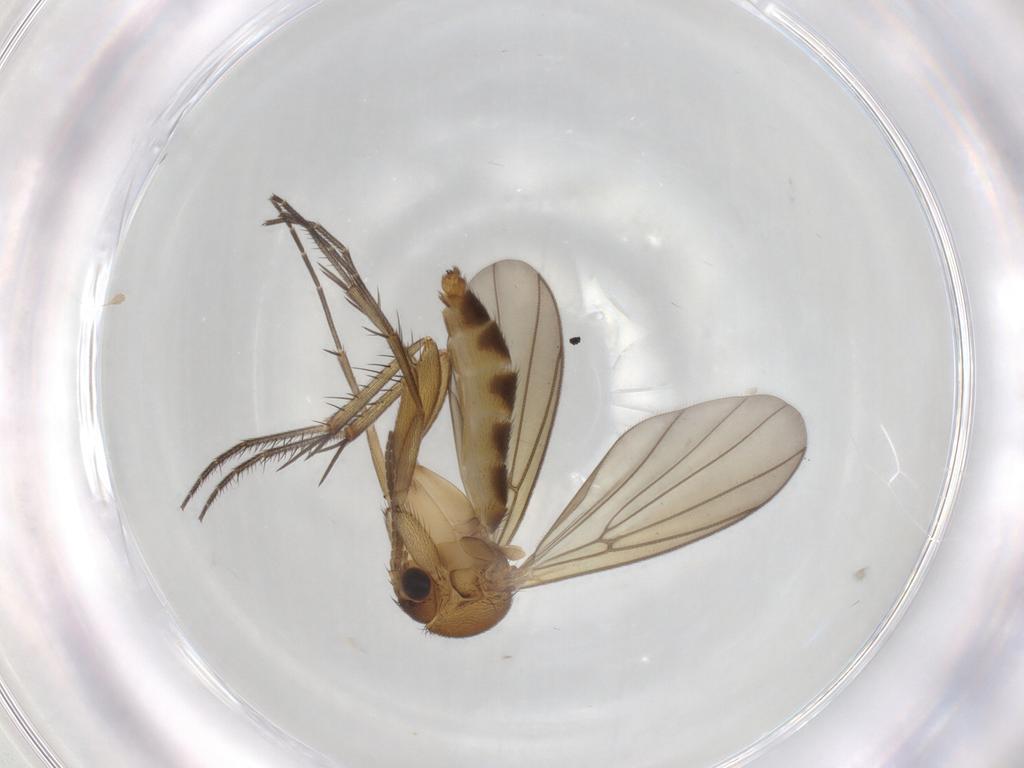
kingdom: Animalia
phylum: Arthropoda
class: Insecta
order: Diptera
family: Mycetophilidae
